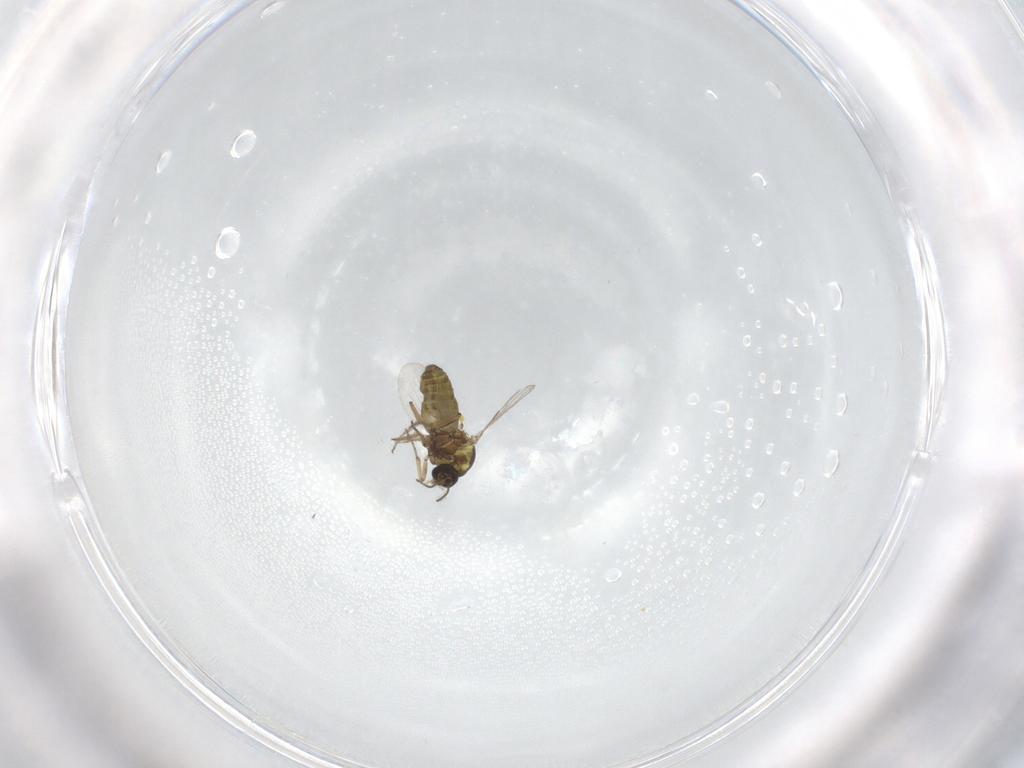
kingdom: Animalia
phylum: Arthropoda
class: Insecta
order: Diptera
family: Ceratopogonidae
